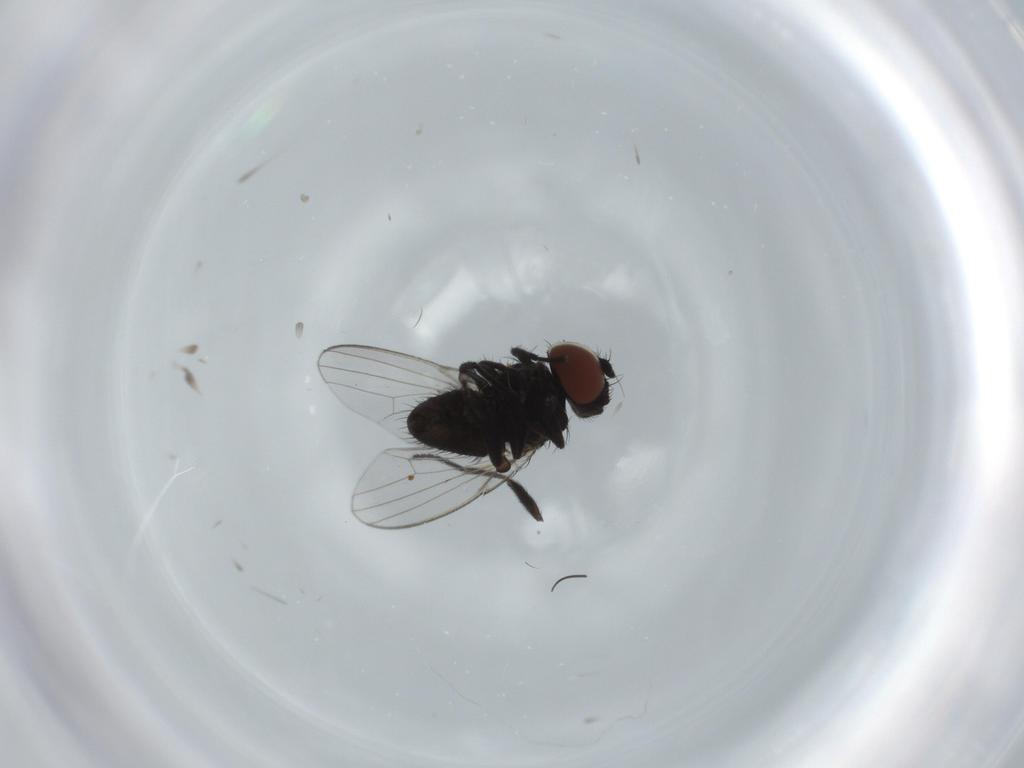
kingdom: Animalia
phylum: Arthropoda
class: Insecta
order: Diptera
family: Milichiidae
